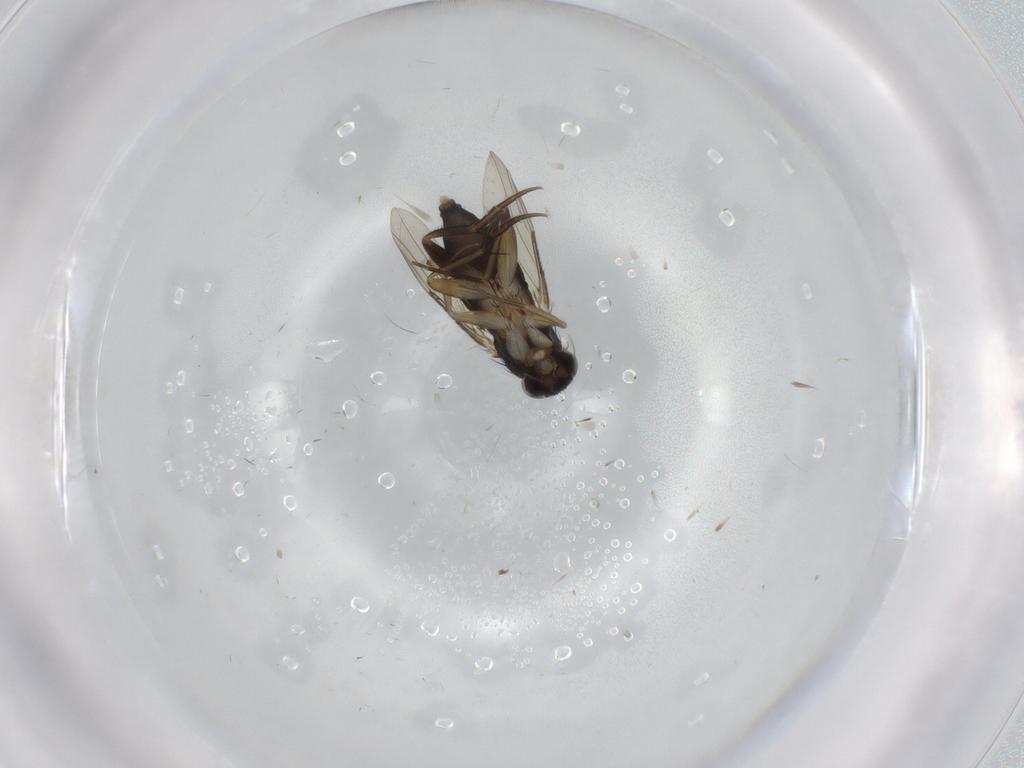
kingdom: Animalia
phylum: Arthropoda
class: Insecta
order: Diptera
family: Phoridae
